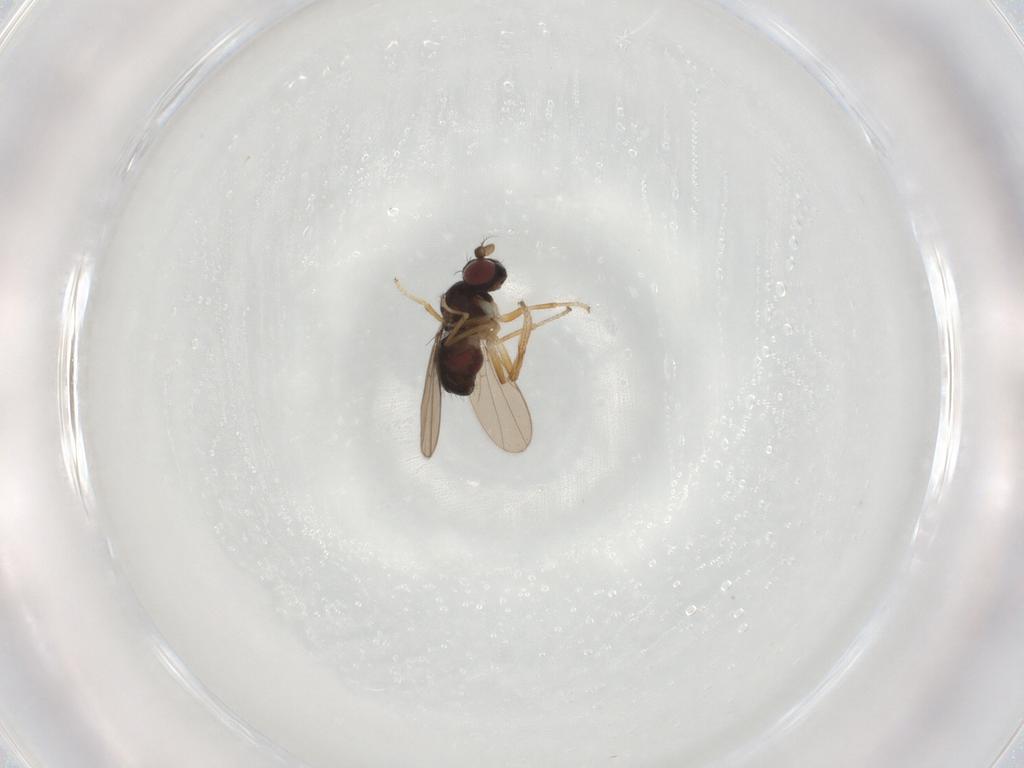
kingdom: Animalia
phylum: Arthropoda
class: Insecta
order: Diptera
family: Ephydridae
